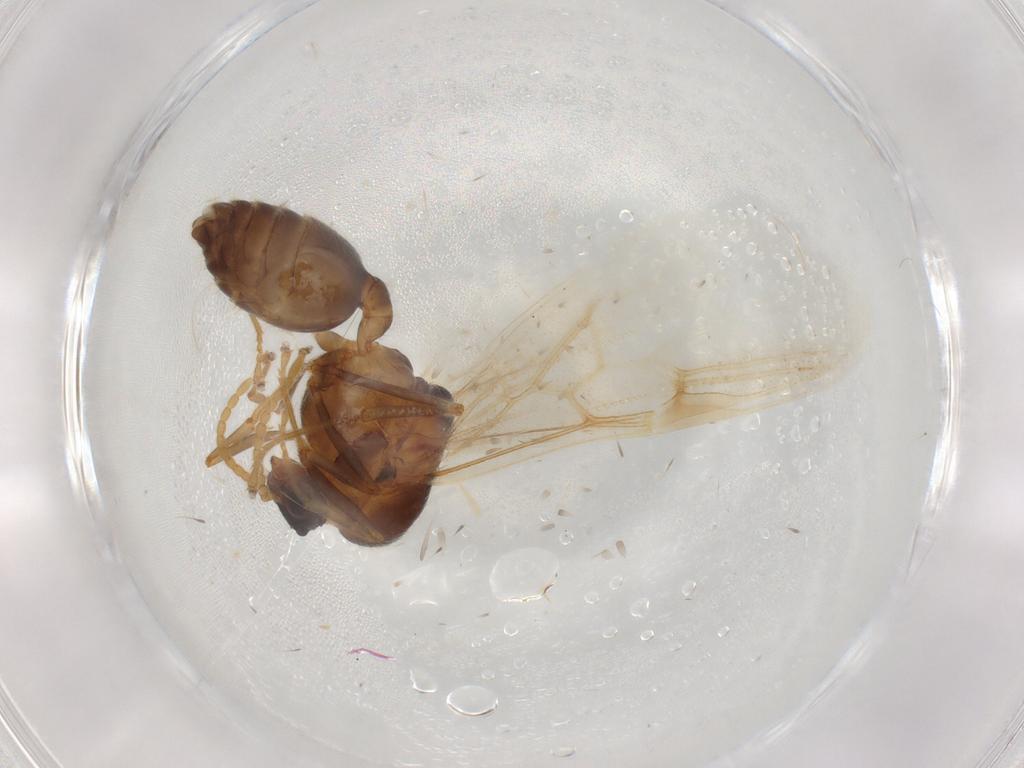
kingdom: Animalia
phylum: Arthropoda
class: Insecta
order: Hymenoptera
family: Formicidae
